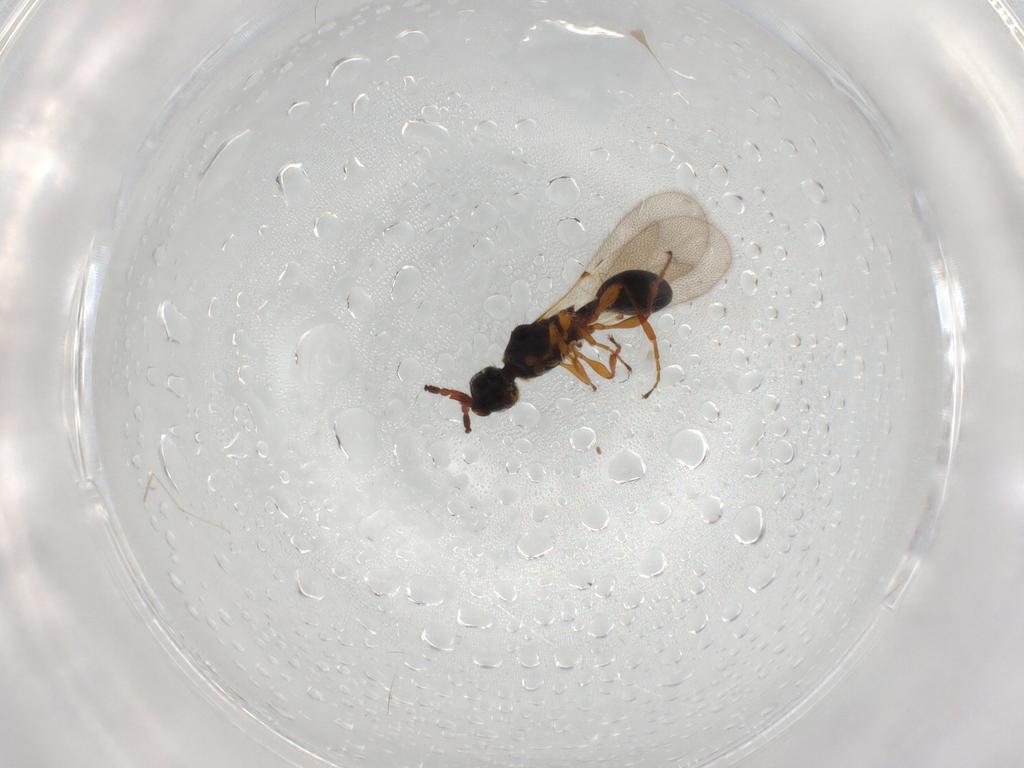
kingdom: Animalia
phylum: Arthropoda
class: Insecta
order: Hymenoptera
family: Diapriidae
